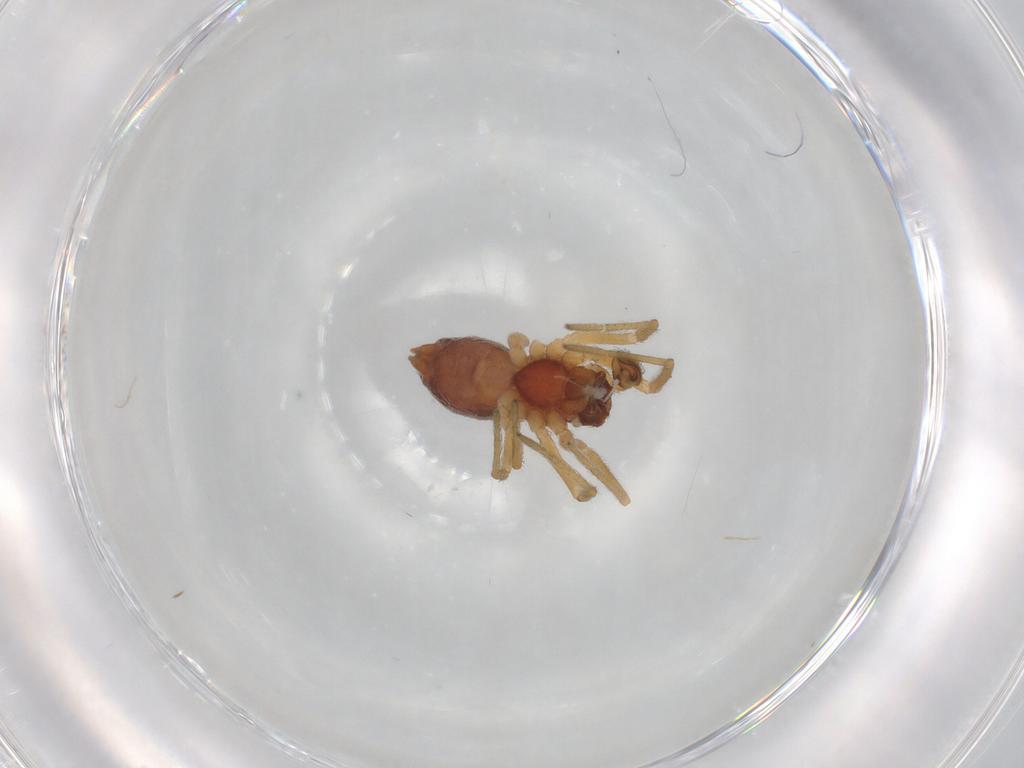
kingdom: Animalia
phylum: Arthropoda
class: Arachnida
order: Araneae
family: Dictynidae
